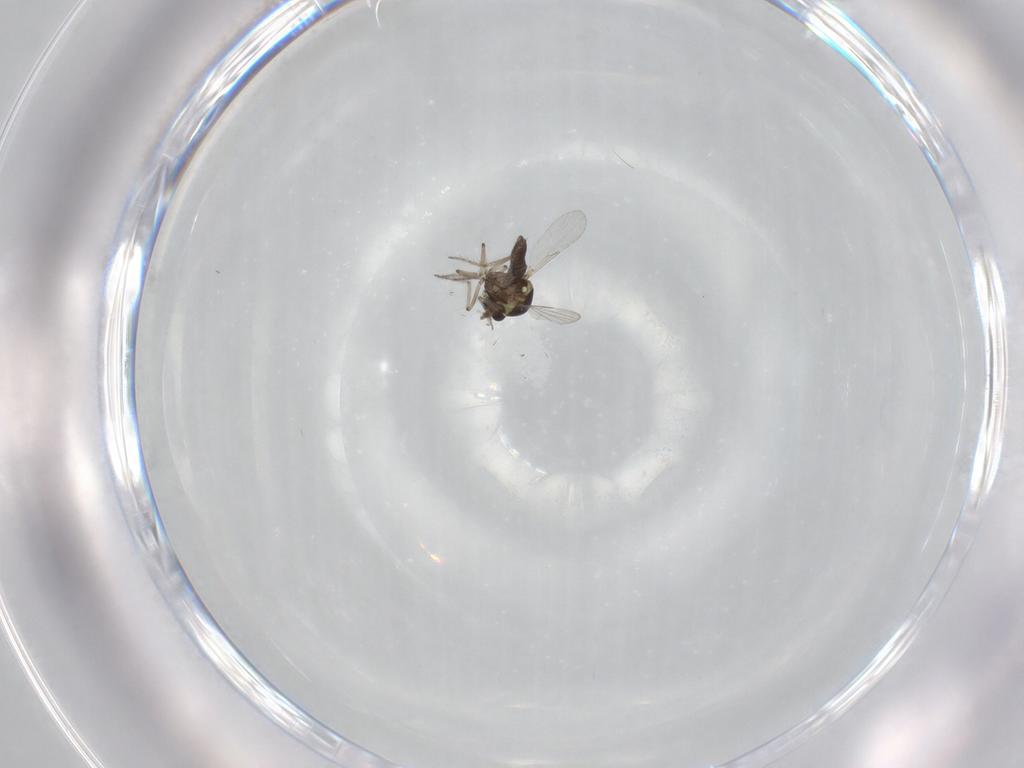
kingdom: Animalia
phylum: Arthropoda
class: Insecta
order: Diptera
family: Ceratopogonidae
